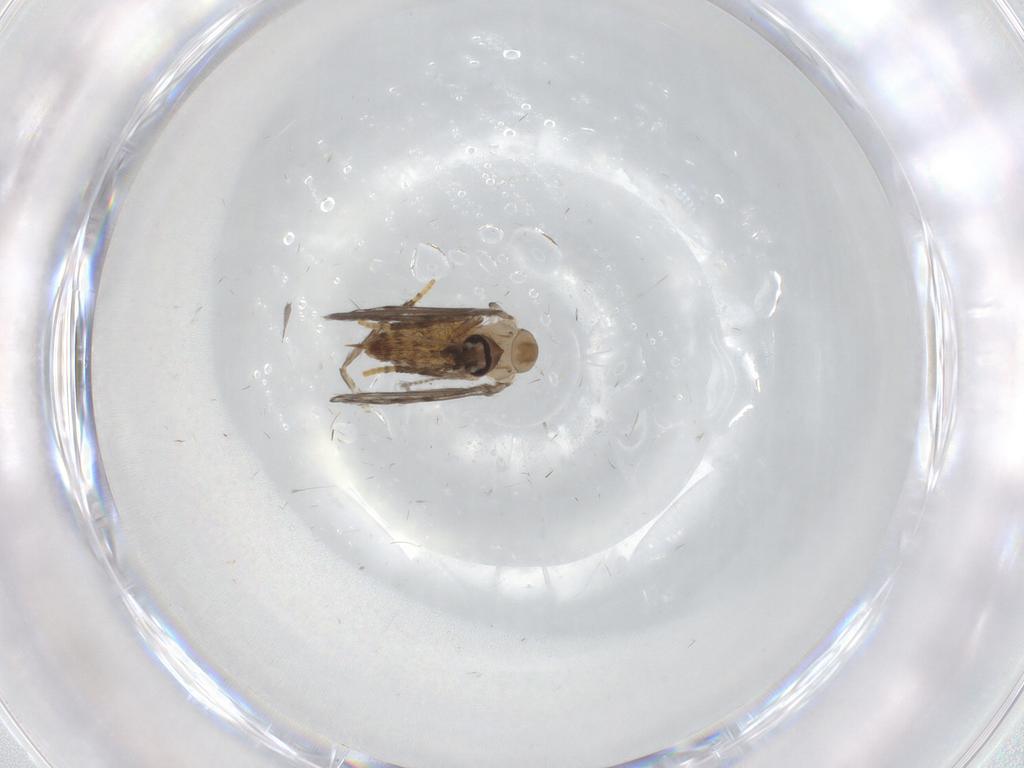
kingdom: Animalia
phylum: Arthropoda
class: Insecta
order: Diptera
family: Psychodidae
